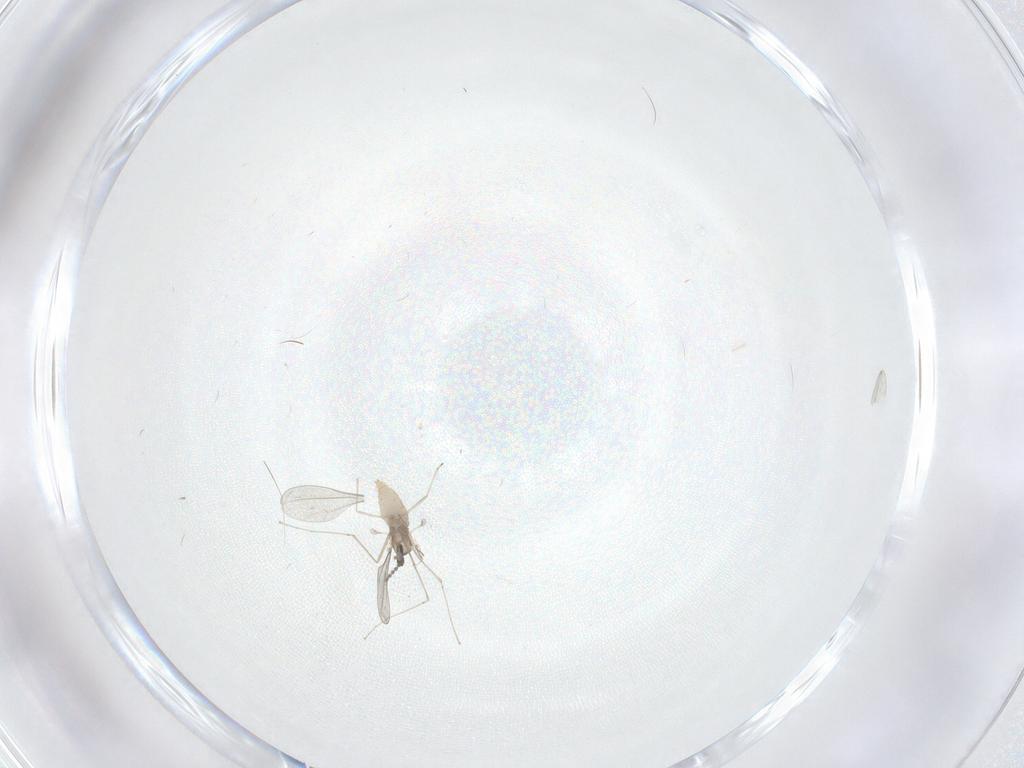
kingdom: Animalia
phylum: Arthropoda
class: Insecta
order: Diptera
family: Cecidomyiidae
